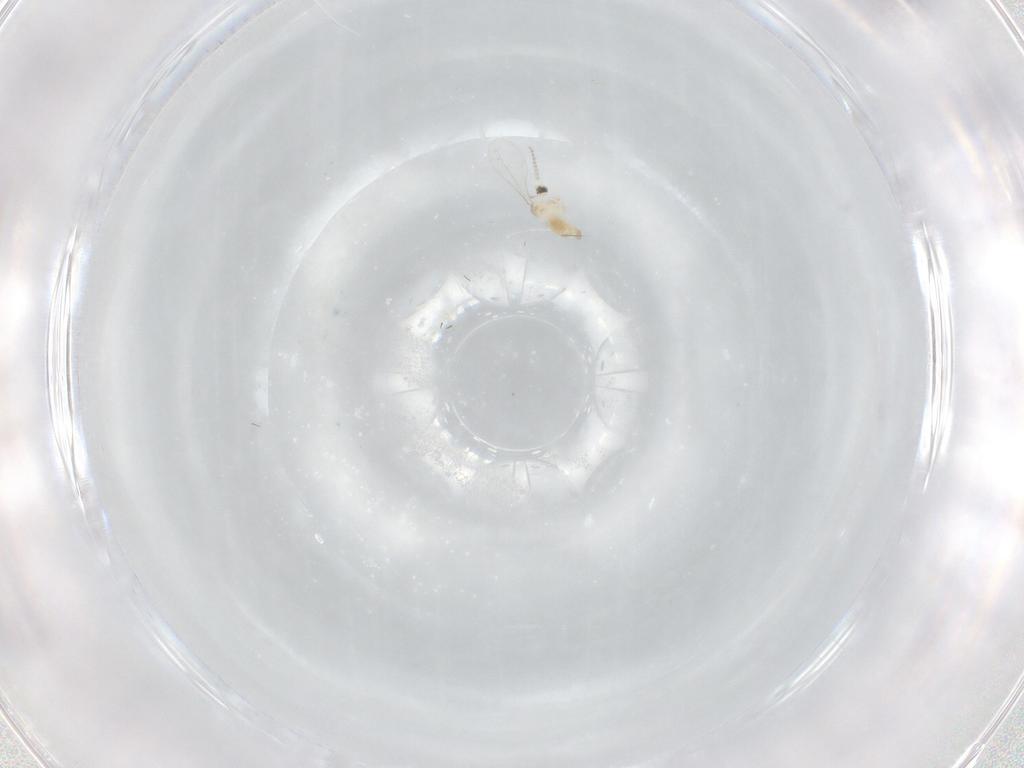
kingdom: Animalia
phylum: Arthropoda
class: Insecta
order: Diptera
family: Cecidomyiidae
